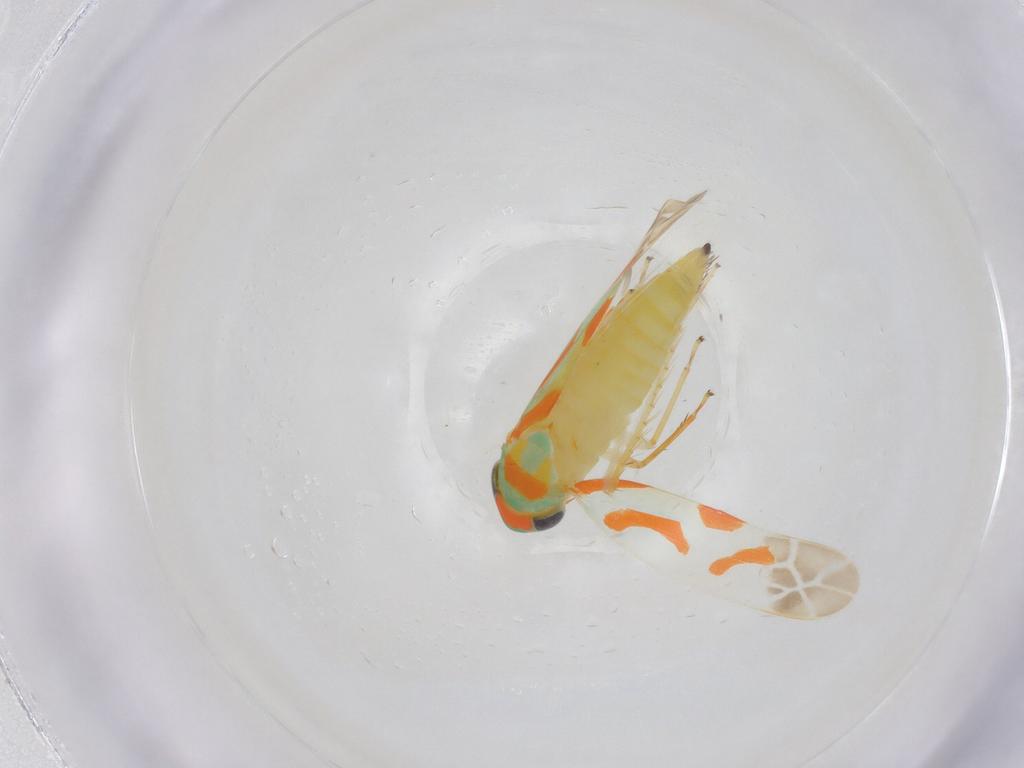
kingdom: Animalia
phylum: Arthropoda
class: Insecta
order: Hemiptera
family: Cicadellidae
